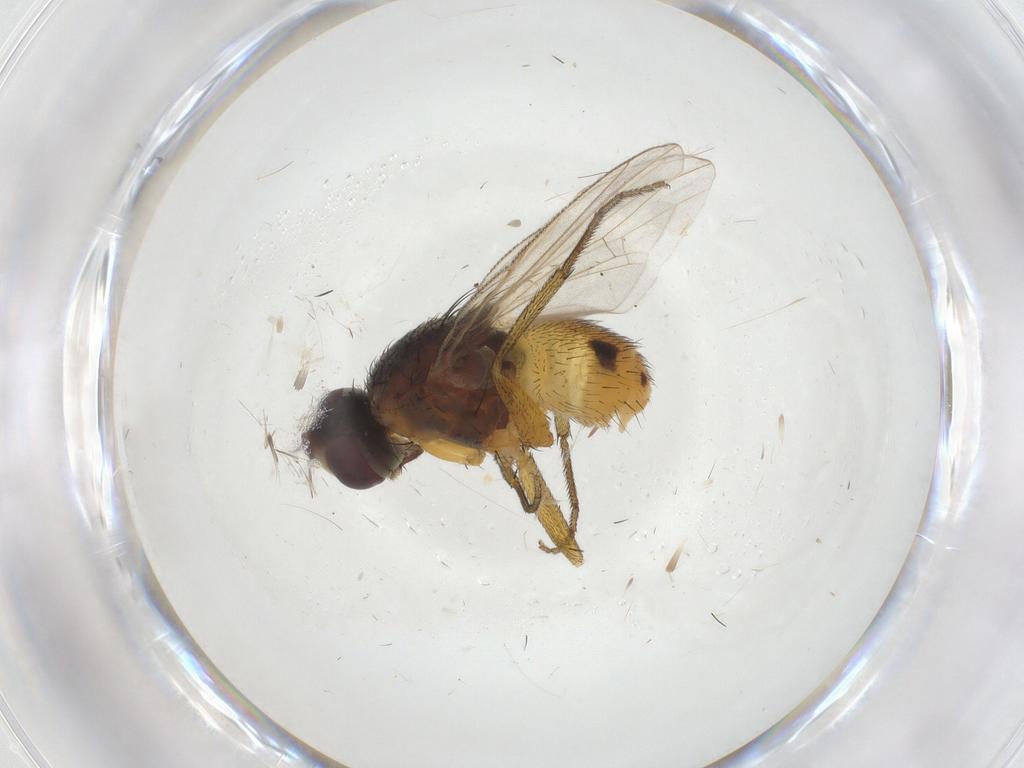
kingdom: Animalia
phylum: Arthropoda
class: Insecta
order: Diptera
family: Muscidae
